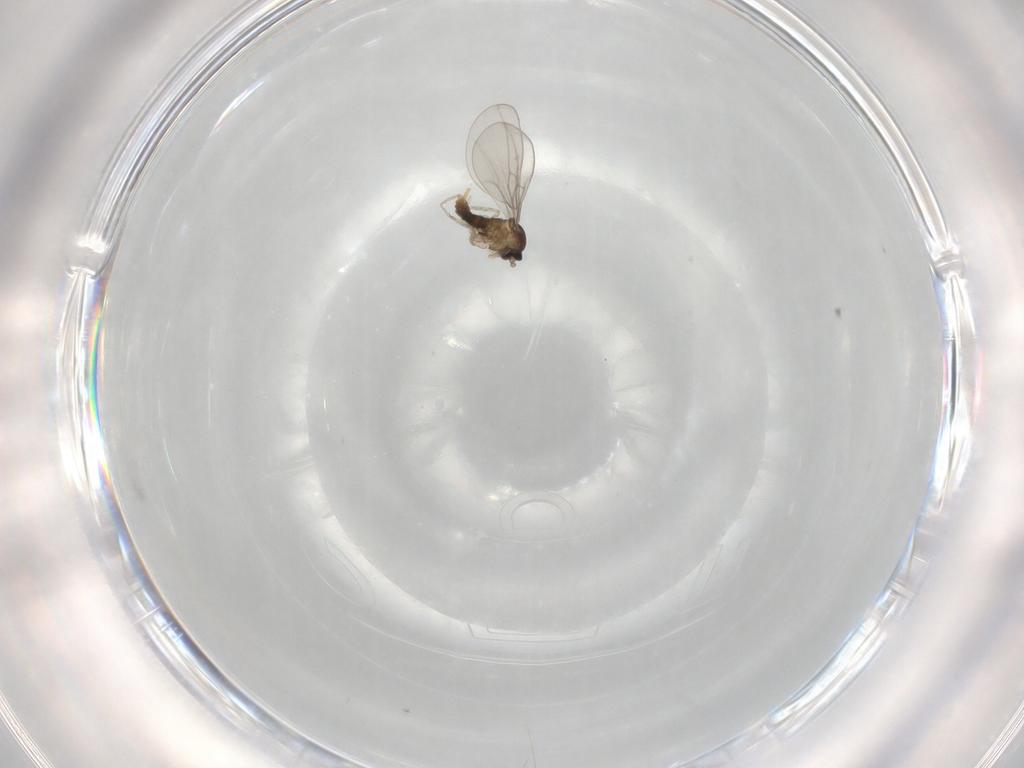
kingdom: Animalia
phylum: Arthropoda
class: Insecta
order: Diptera
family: Cecidomyiidae
